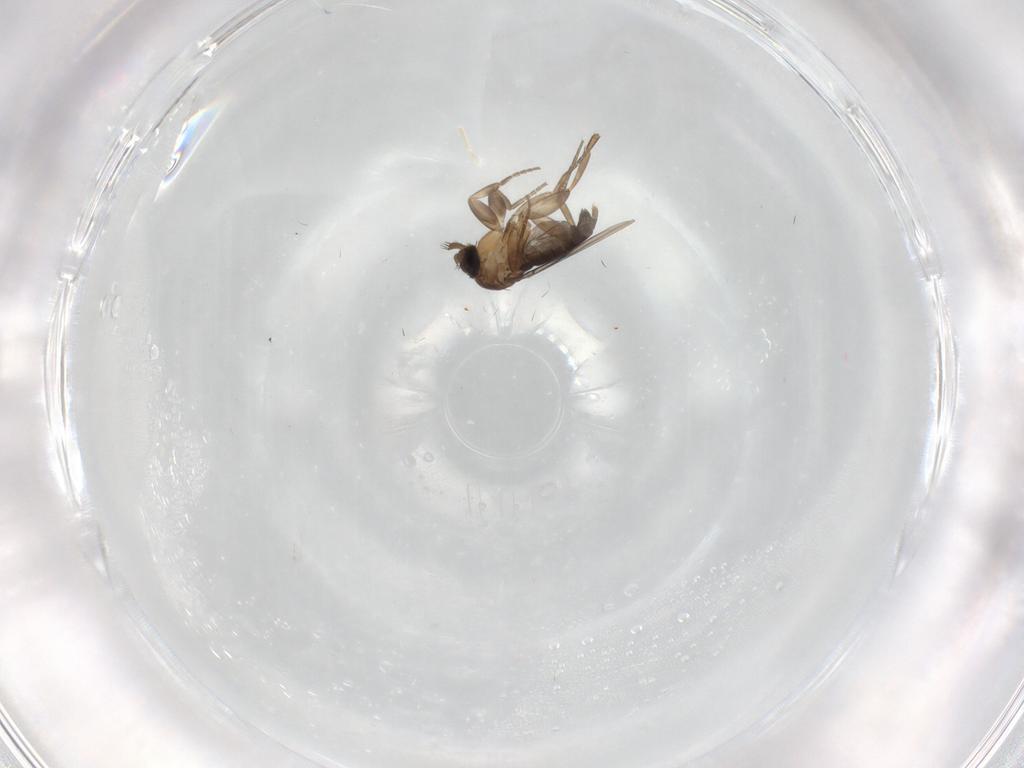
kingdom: Animalia
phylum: Arthropoda
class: Insecta
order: Diptera
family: Phoridae
